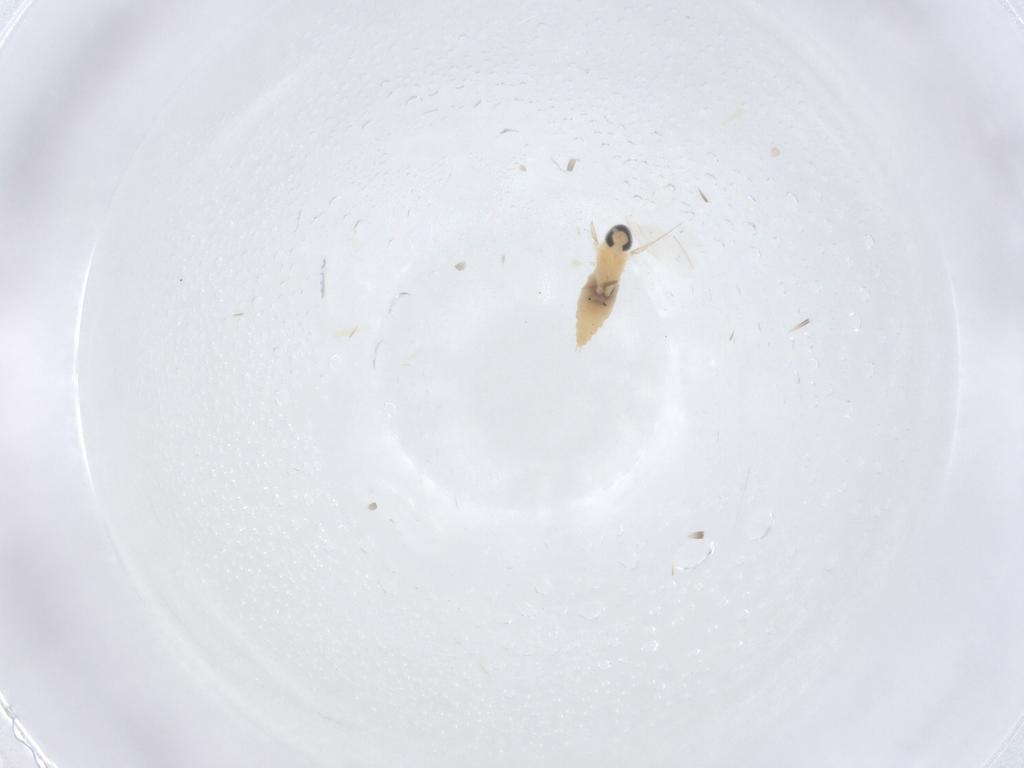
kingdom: Animalia
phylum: Arthropoda
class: Insecta
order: Diptera
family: Cecidomyiidae
